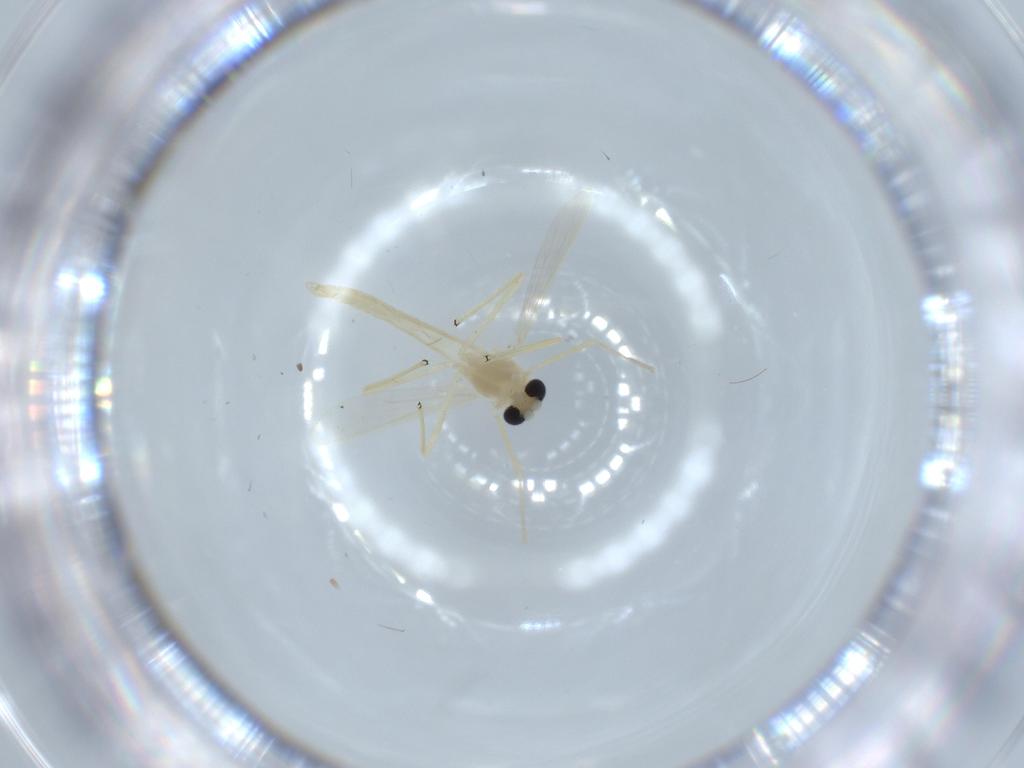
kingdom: Animalia
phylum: Arthropoda
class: Insecta
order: Diptera
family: Chironomidae
